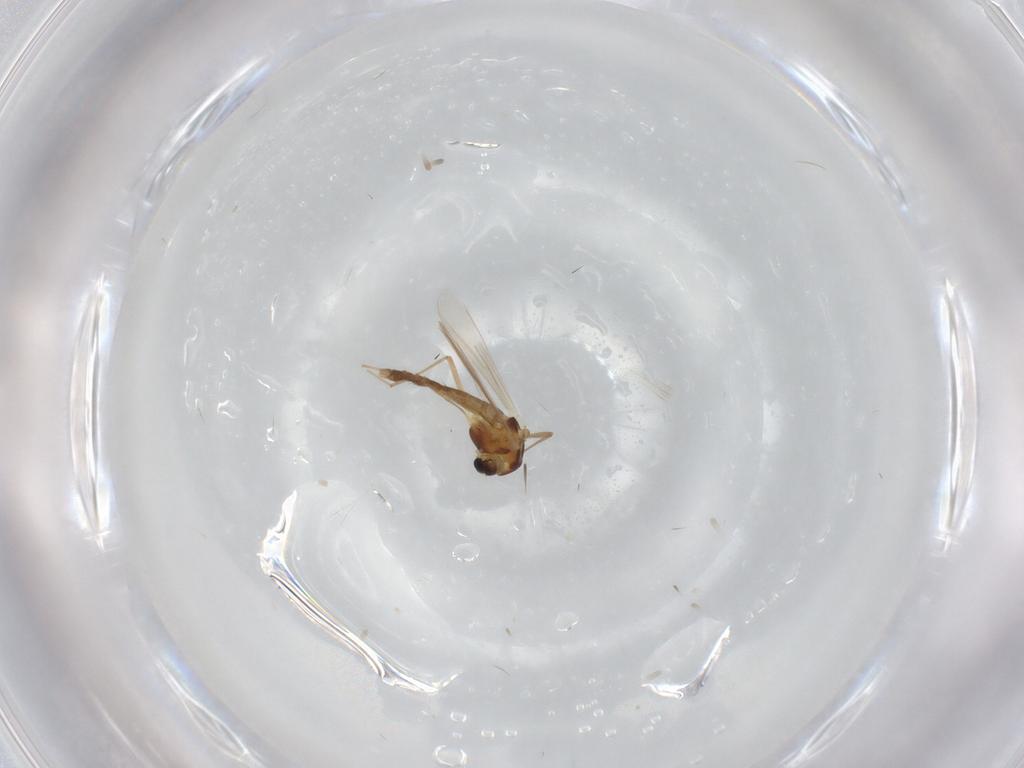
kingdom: Animalia
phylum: Arthropoda
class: Insecta
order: Diptera
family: Chironomidae
